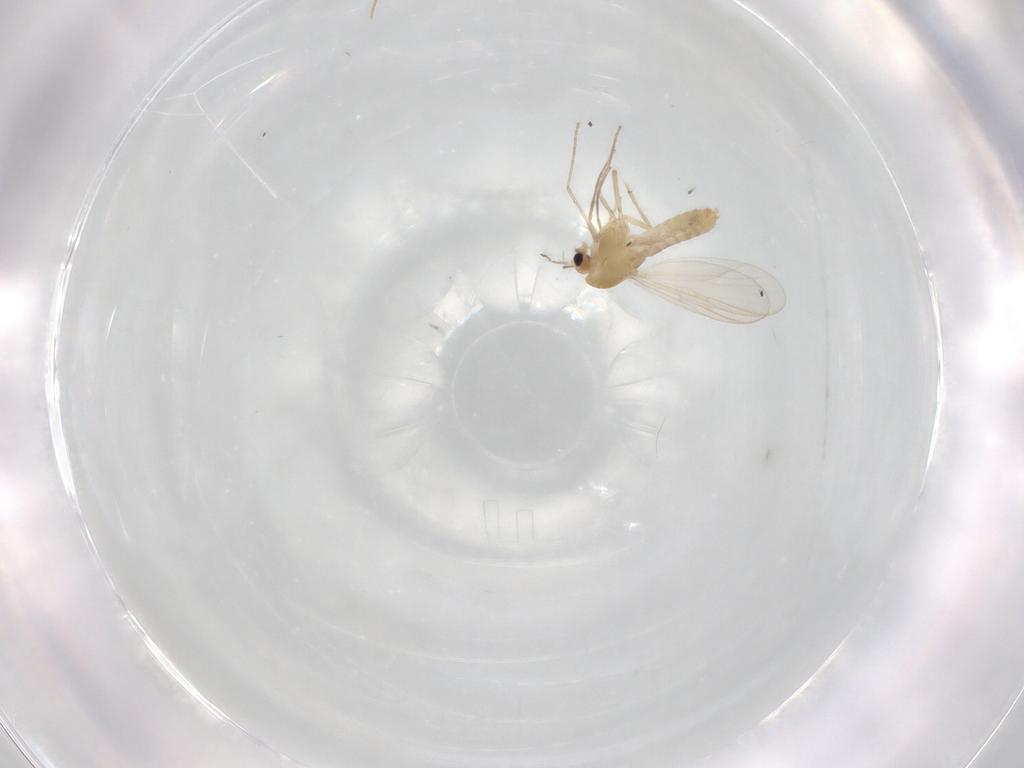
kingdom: Animalia
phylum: Arthropoda
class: Insecta
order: Diptera
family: Chironomidae
